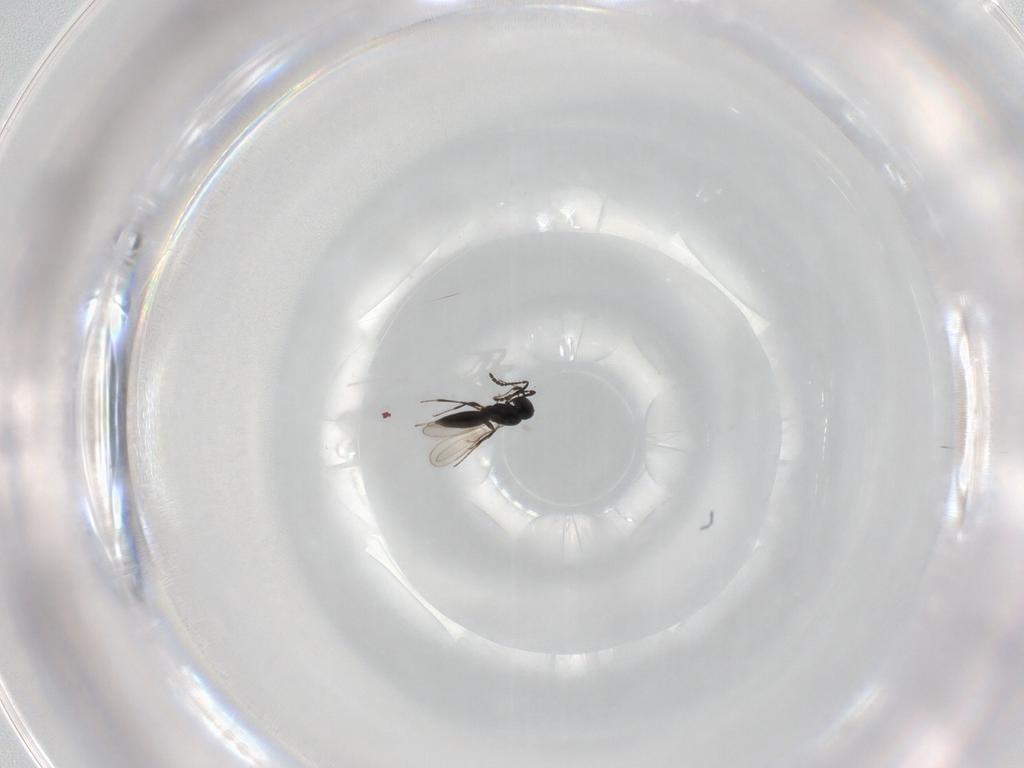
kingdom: Animalia
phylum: Arthropoda
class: Insecta
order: Hymenoptera
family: Scelionidae
